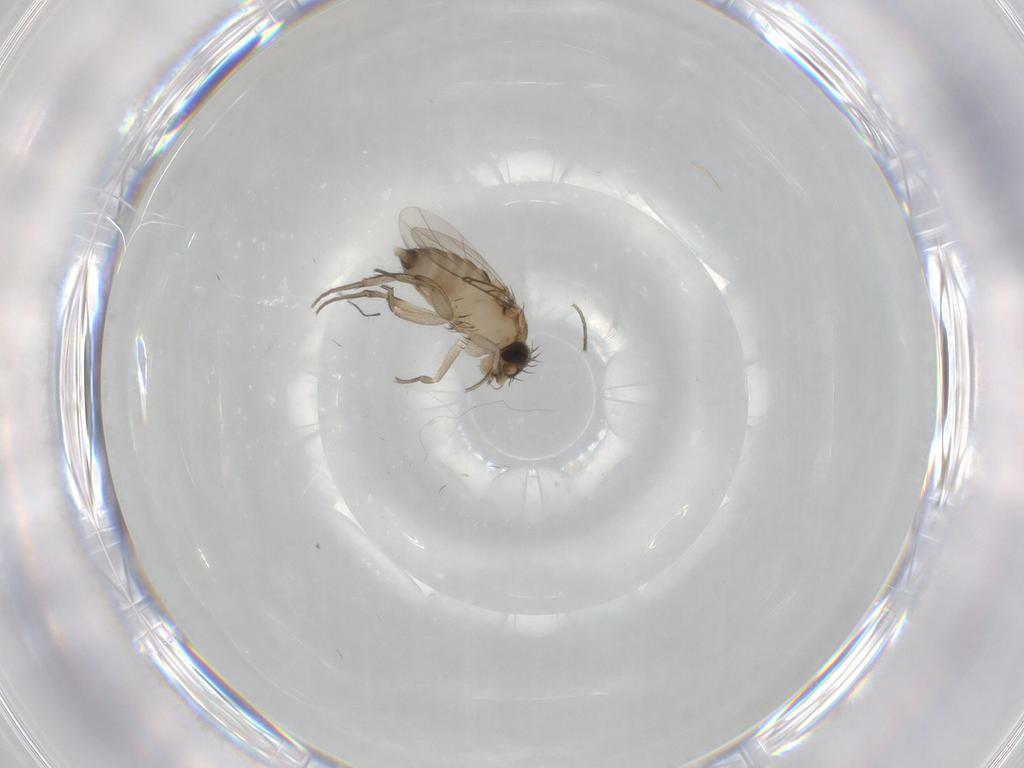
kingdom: Animalia
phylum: Arthropoda
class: Insecta
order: Diptera
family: Phoridae
